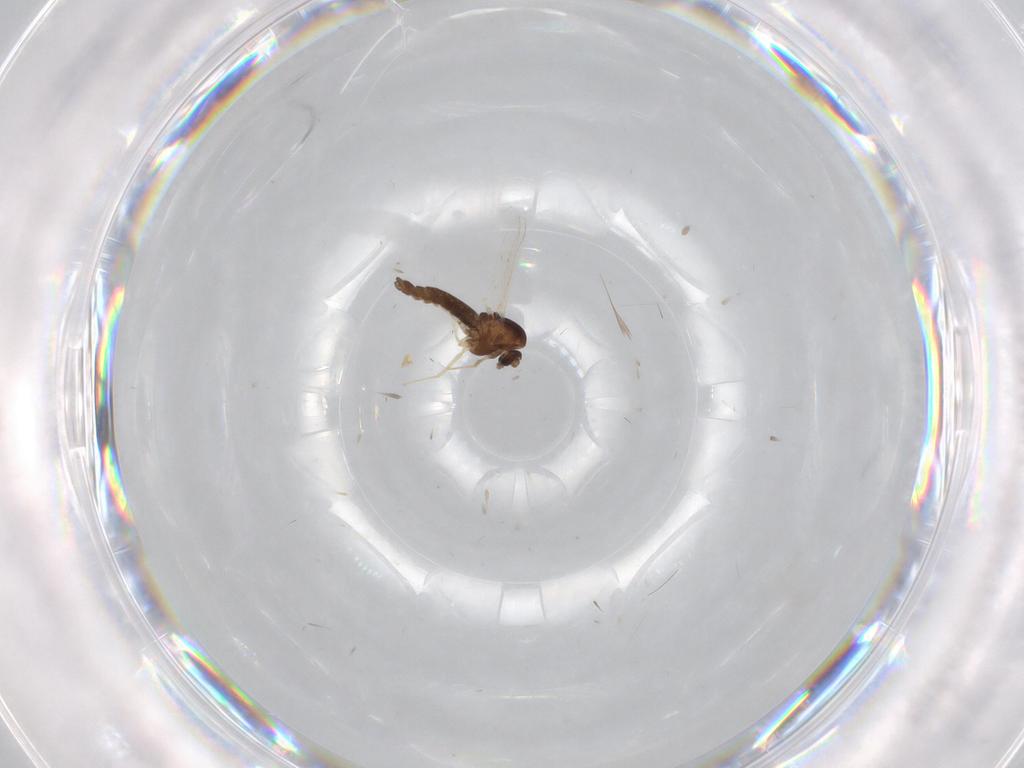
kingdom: Animalia
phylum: Arthropoda
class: Insecta
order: Diptera
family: Chironomidae
